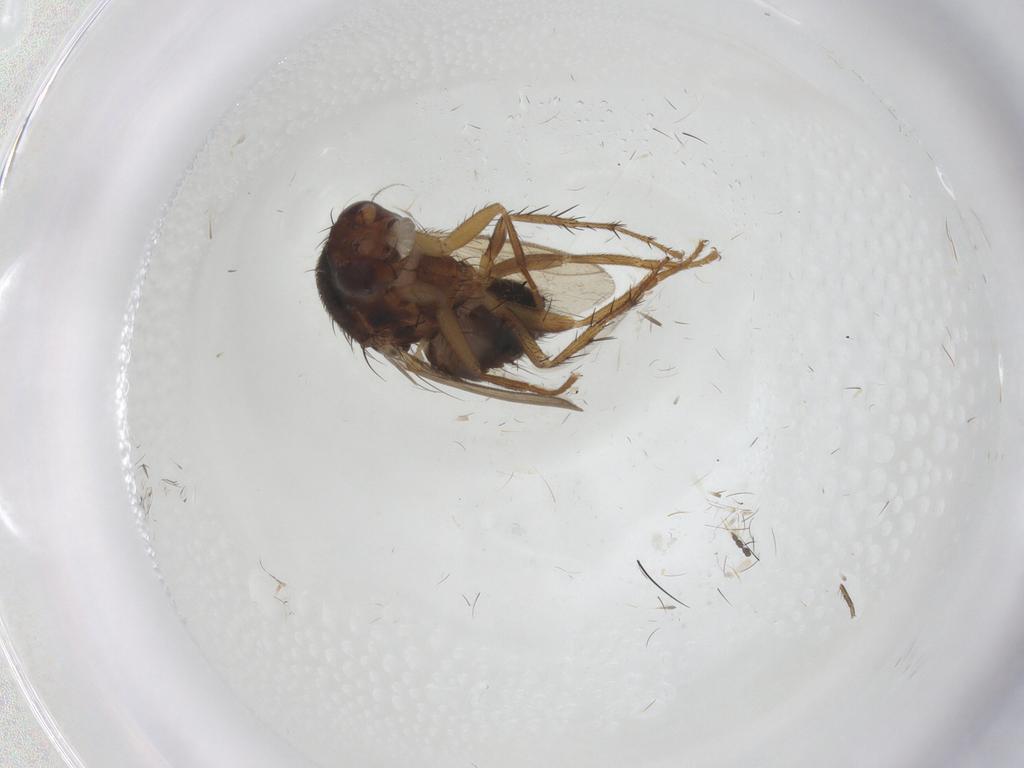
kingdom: Animalia
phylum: Arthropoda
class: Insecta
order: Diptera
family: Sphaeroceridae
